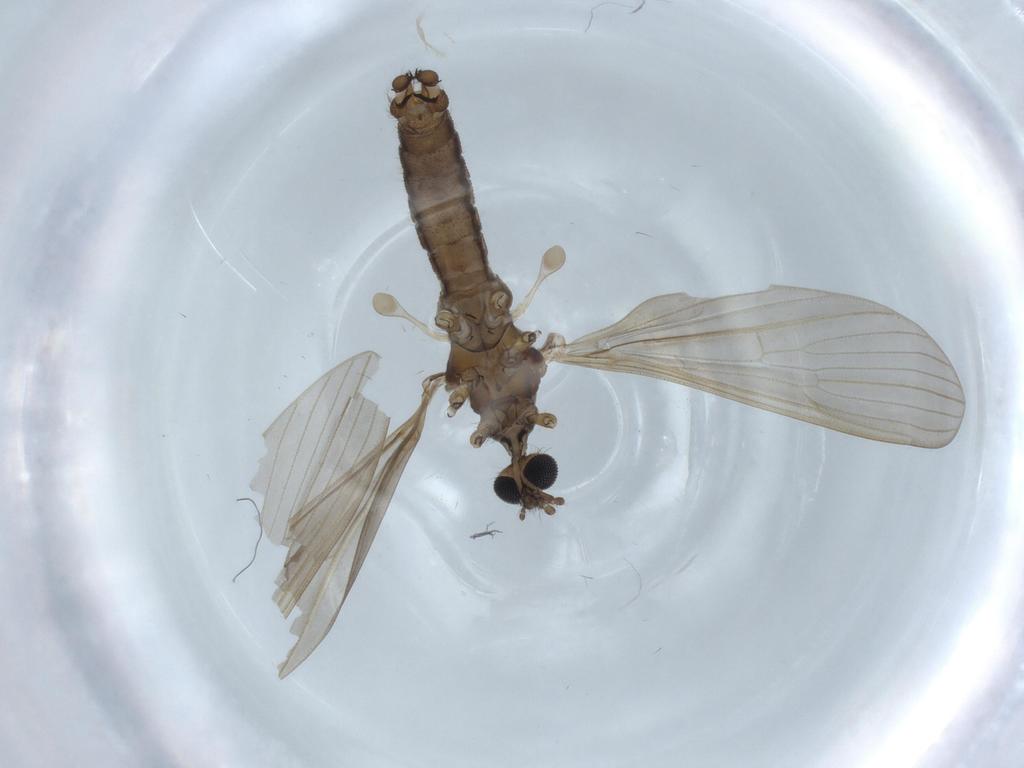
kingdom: Animalia
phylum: Arthropoda
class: Insecta
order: Diptera
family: Limoniidae
